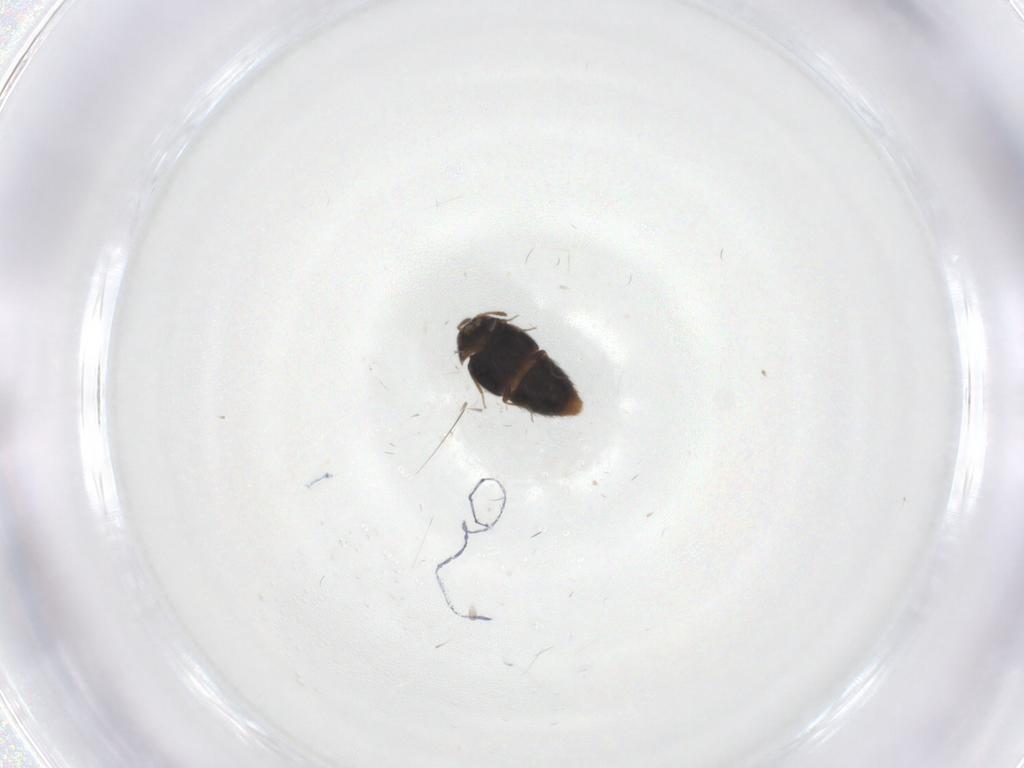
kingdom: Animalia
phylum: Arthropoda
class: Insecta
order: Coleoptera
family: Staphylinidae
